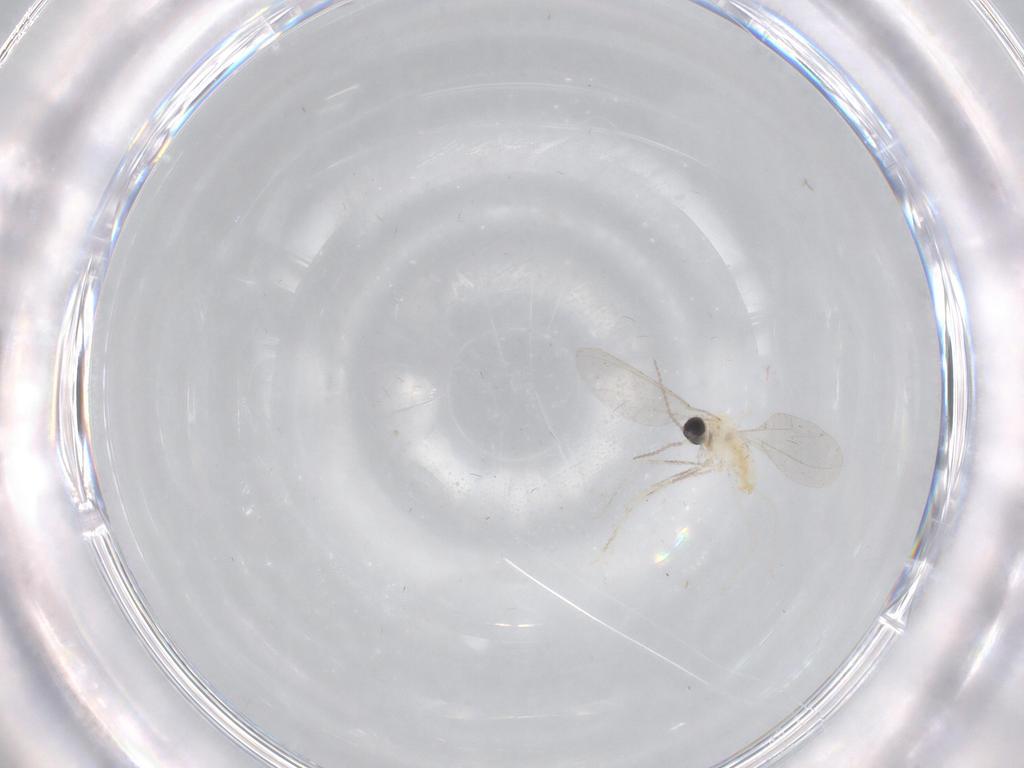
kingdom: Animalia
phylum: Arthropoda
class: Insecta
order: Diptera
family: Cecidomyiidae
